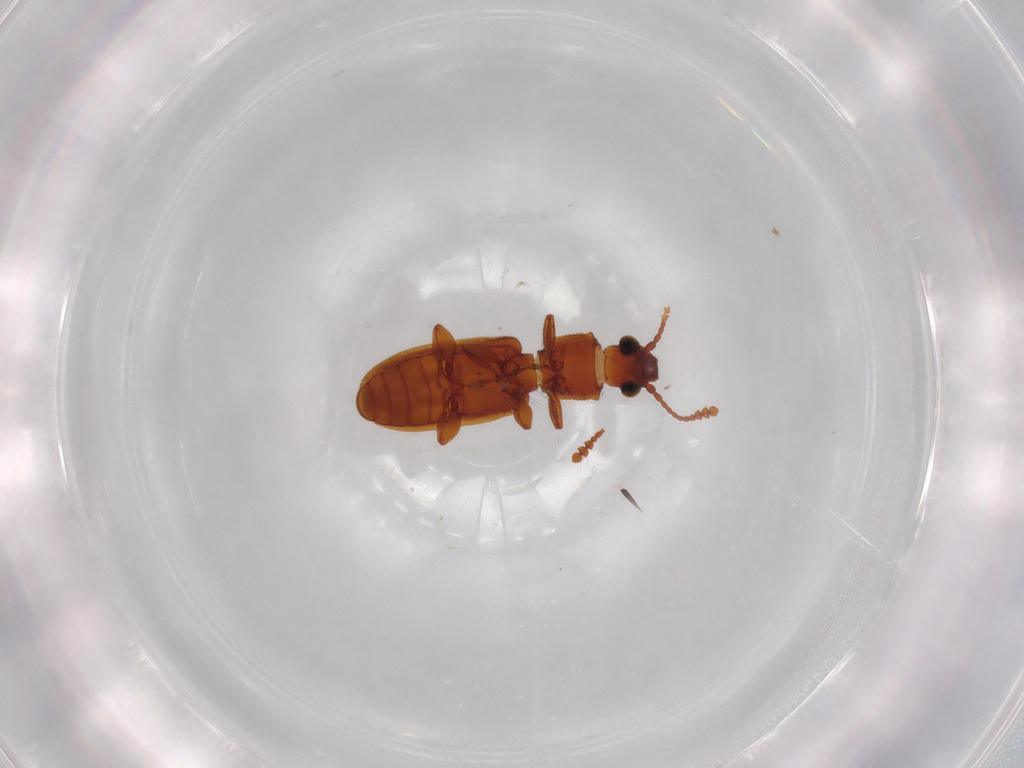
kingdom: Animalia
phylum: Arthropoda
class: Insecta
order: Coleoptera
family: Silvanidae
